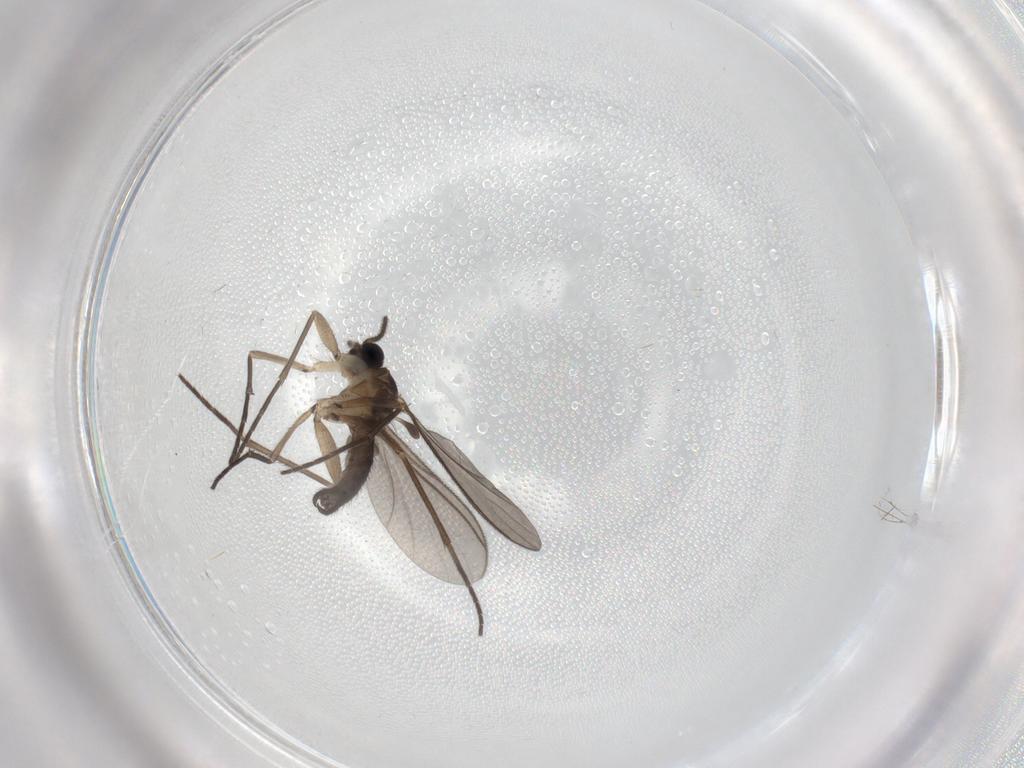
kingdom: Animalia
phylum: Arthropoda
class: Insecta
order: Diptera
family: Sciaridae
